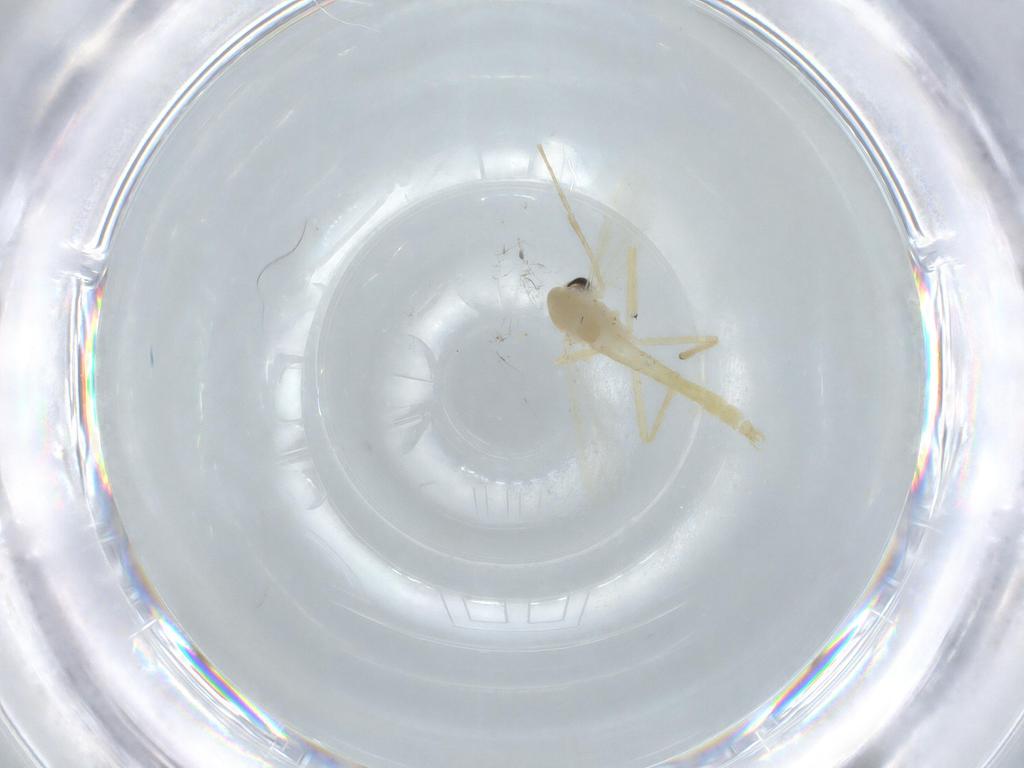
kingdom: Animalia
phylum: Arthropoda
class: Insecta
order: Diptera
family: Chironomidae
